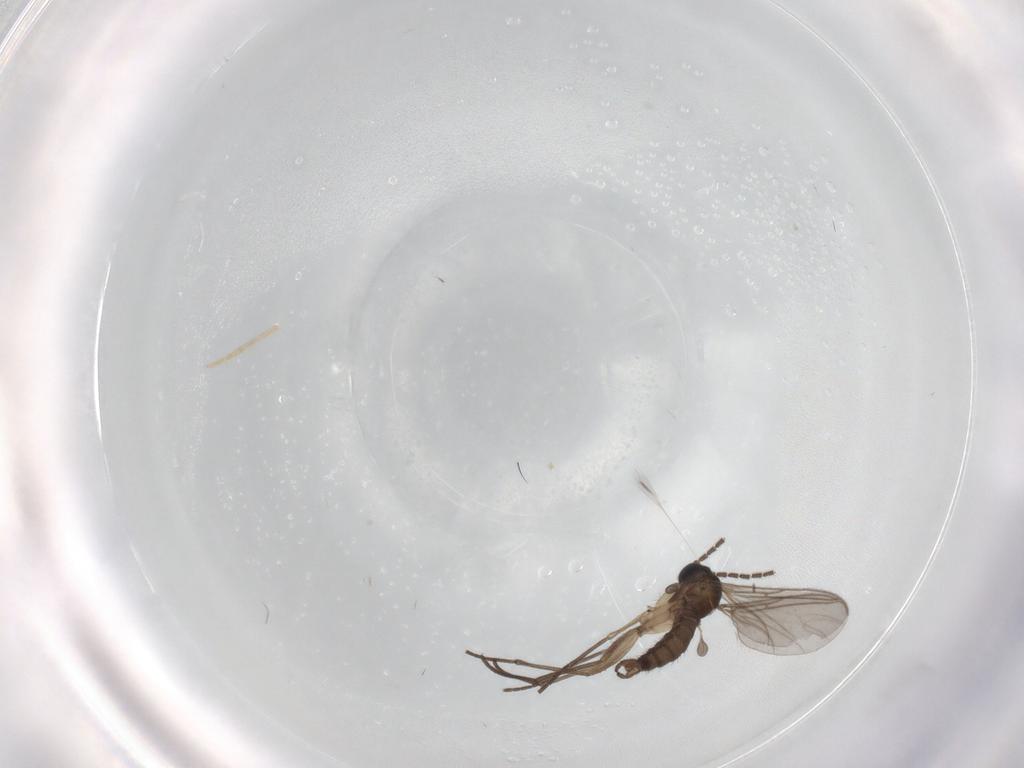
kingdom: Animalia
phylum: Arthropoda
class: Insecta
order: Diptera
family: Sciaridae
